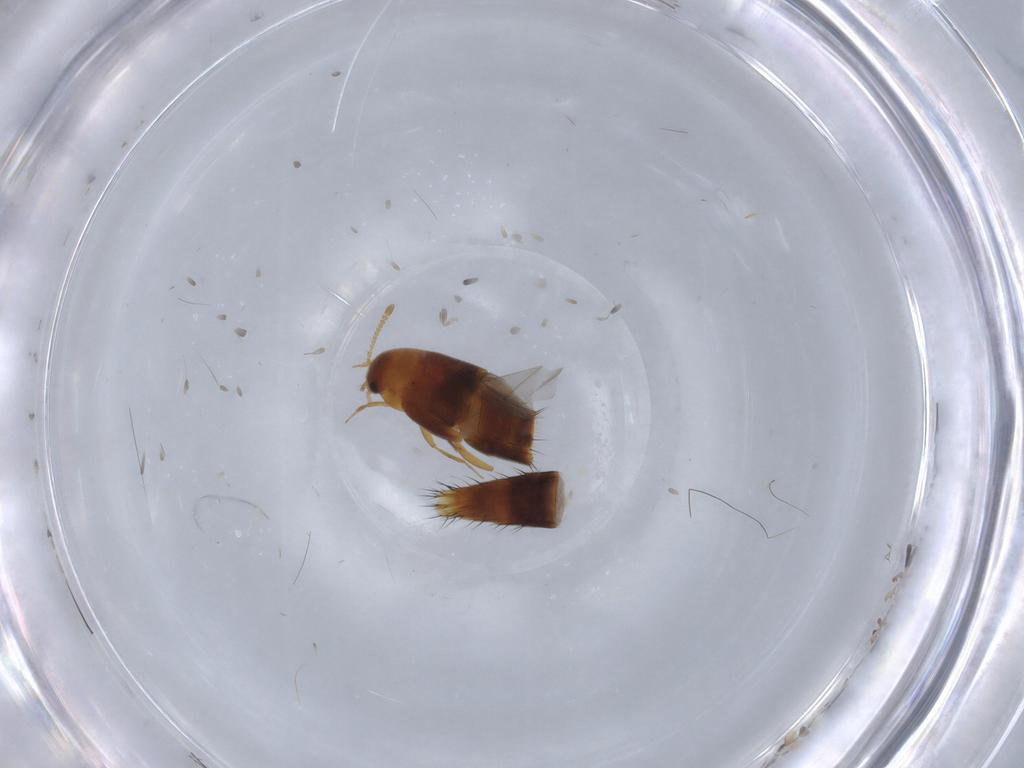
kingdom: Animalia
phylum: Arthropoda
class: Insecta
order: Coleoptera
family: Staphylinidae
